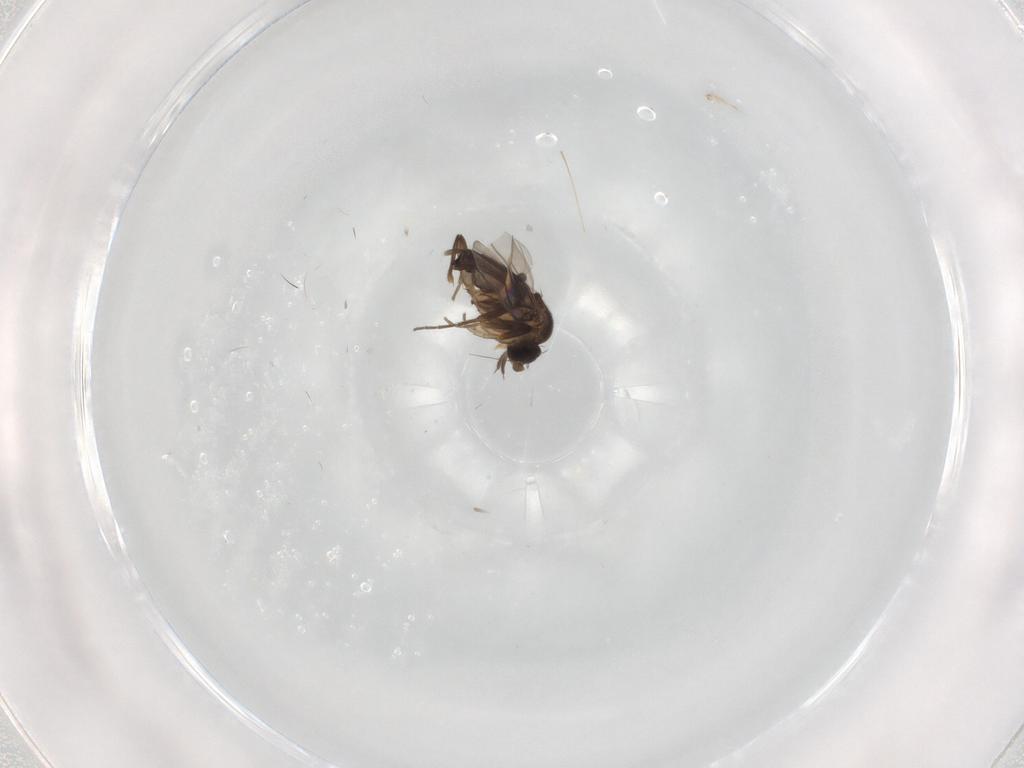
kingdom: Animalia
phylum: Arthropoda
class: Insecta
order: Diptera
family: Phoridae
